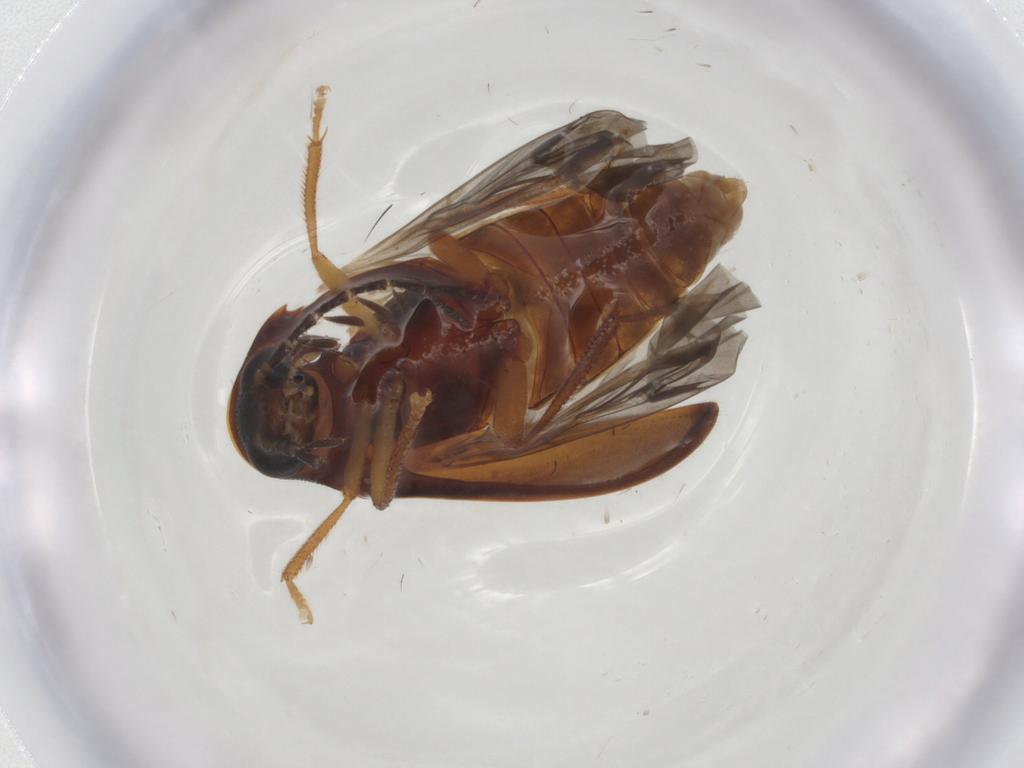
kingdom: Animalia
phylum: Arthropoda
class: Insecta
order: Coleoptera
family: Ptilodactylidae
